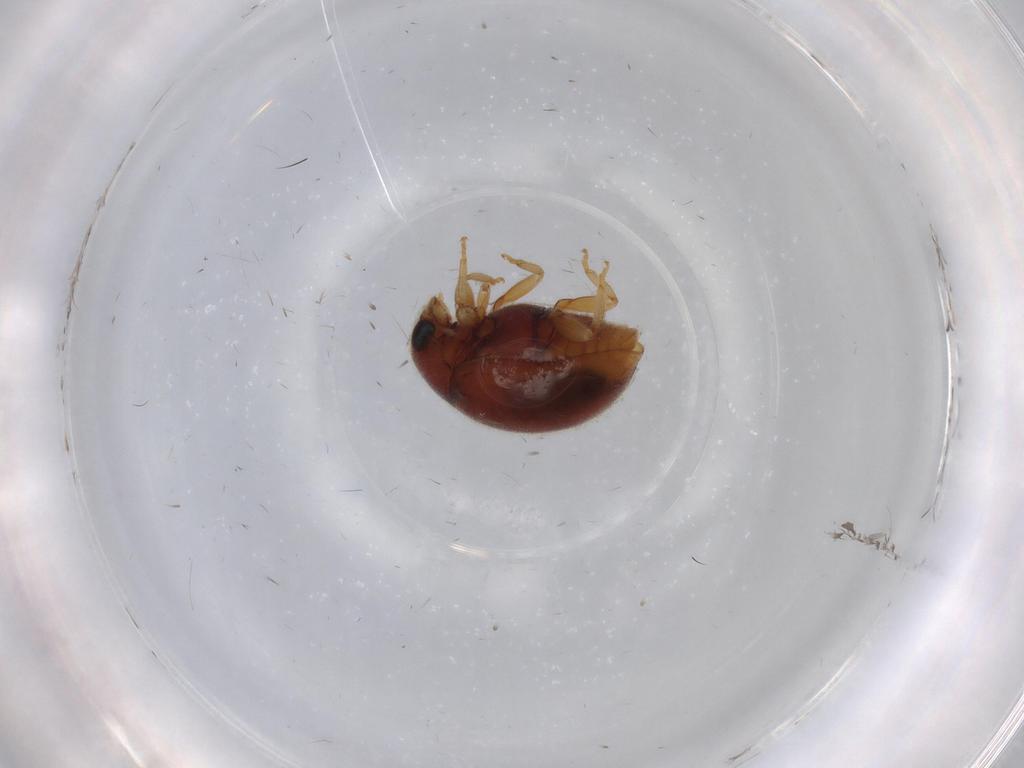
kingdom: Animalia
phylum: Arthropoda
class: Insecta
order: Coleoptera
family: Coccinellidae
